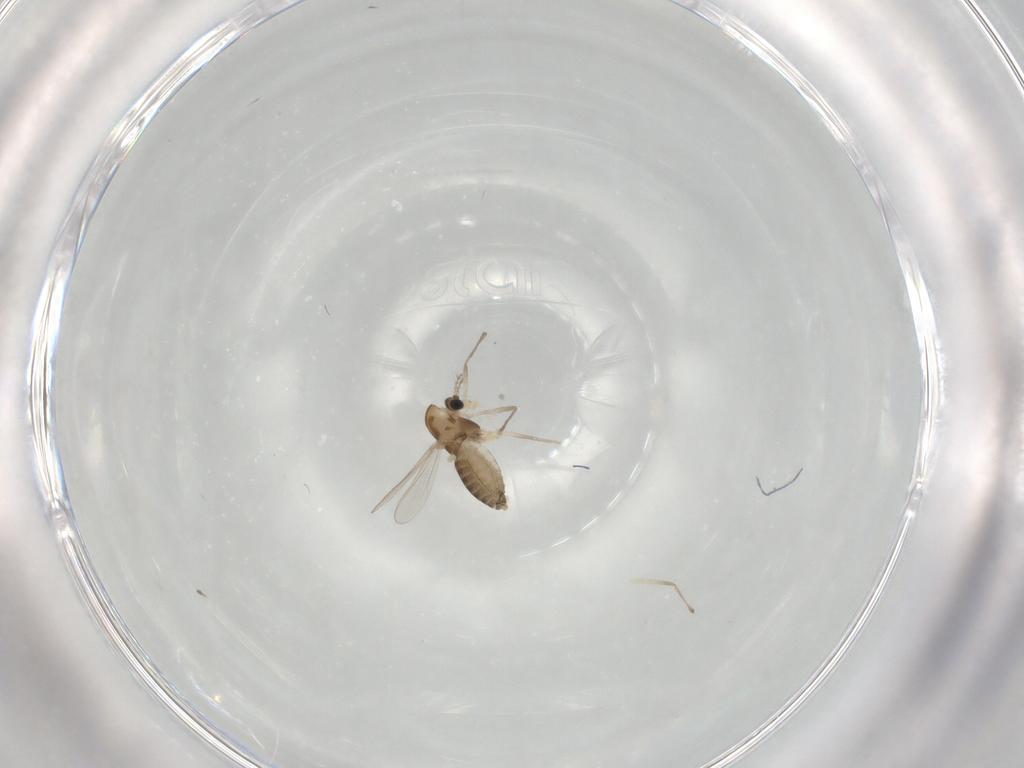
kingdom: Animalia
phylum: Arthropoda
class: Insecta
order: Diptera
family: Chironomidae
